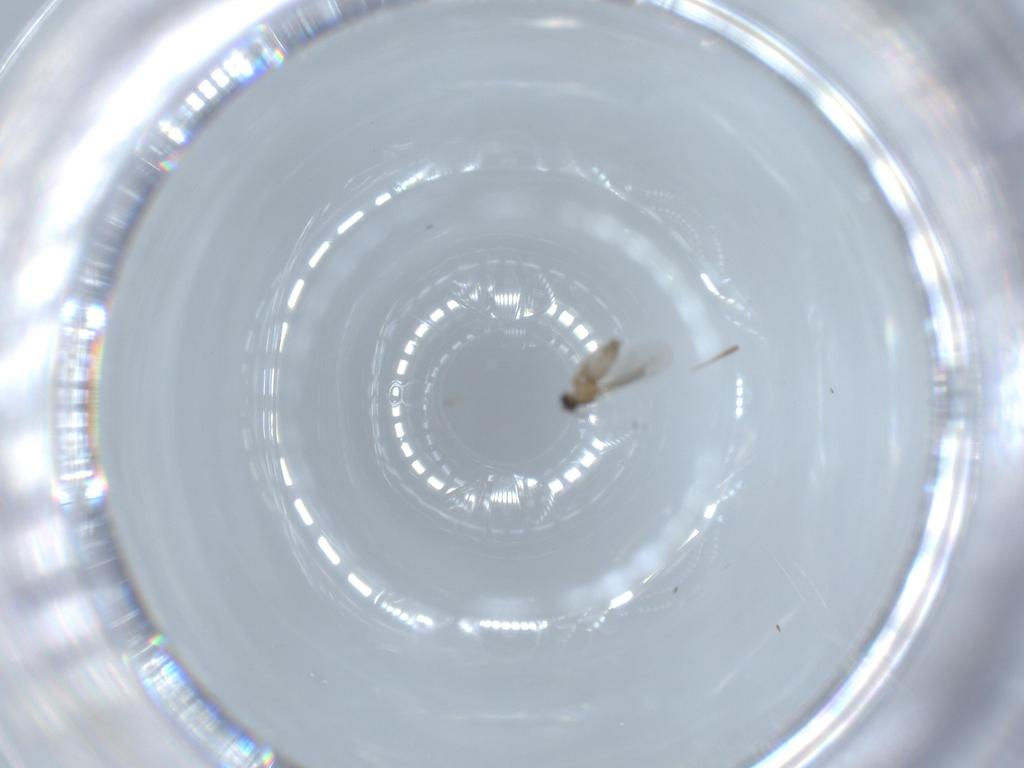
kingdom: Animalia
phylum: Arthropoda
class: Insecta
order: Diptera
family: Cecidomyiidae
